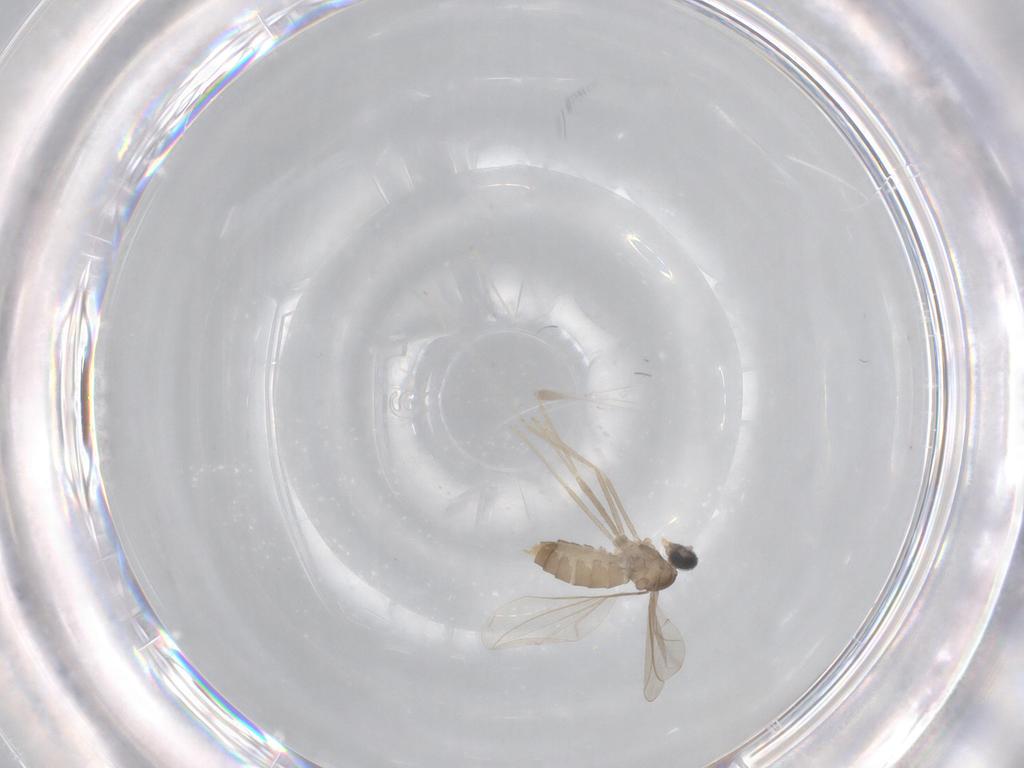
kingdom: Animalia
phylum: Arthropoda
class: Insecta
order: Diptera
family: Cecidomyiidae
